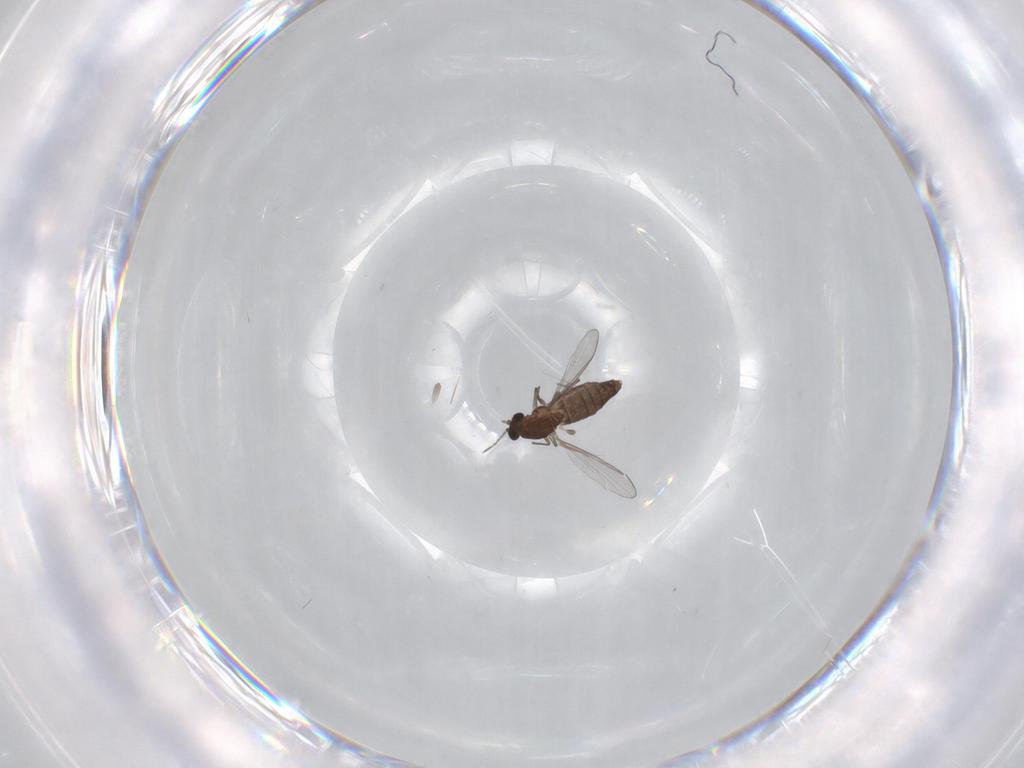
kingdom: Animalia
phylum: Arthropoda
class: Insecta
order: Diptera
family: Chironomidae
